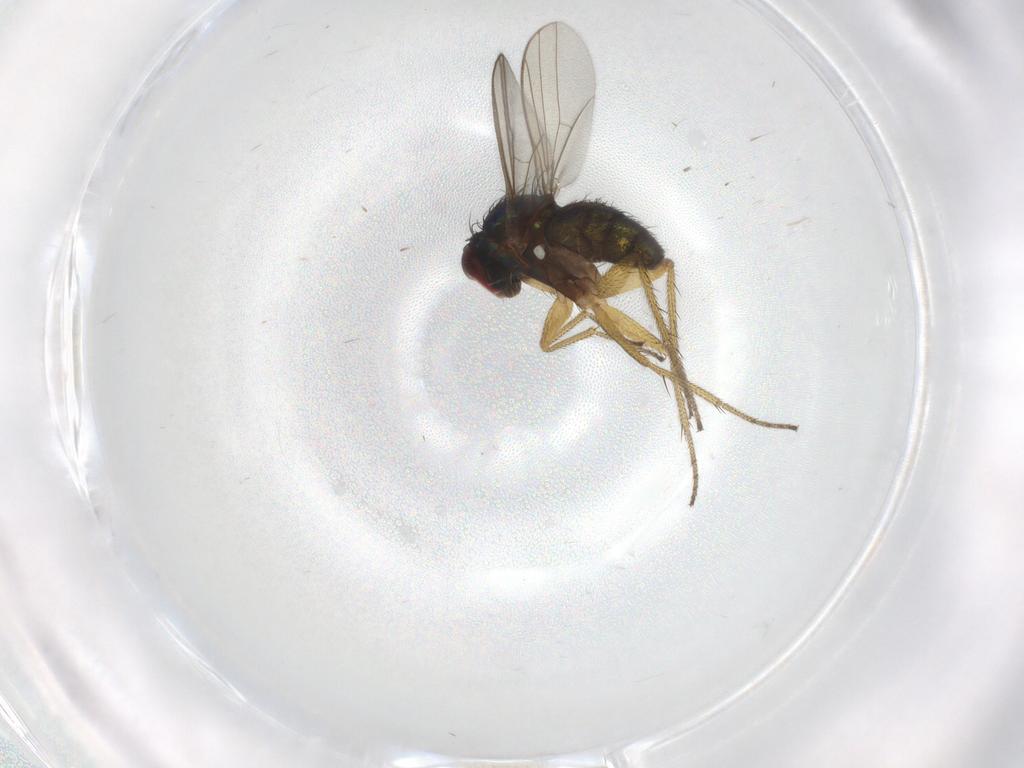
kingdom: Animalia
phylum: Arthropoda
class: Insecta
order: Diptera
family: Dolichopodidae
